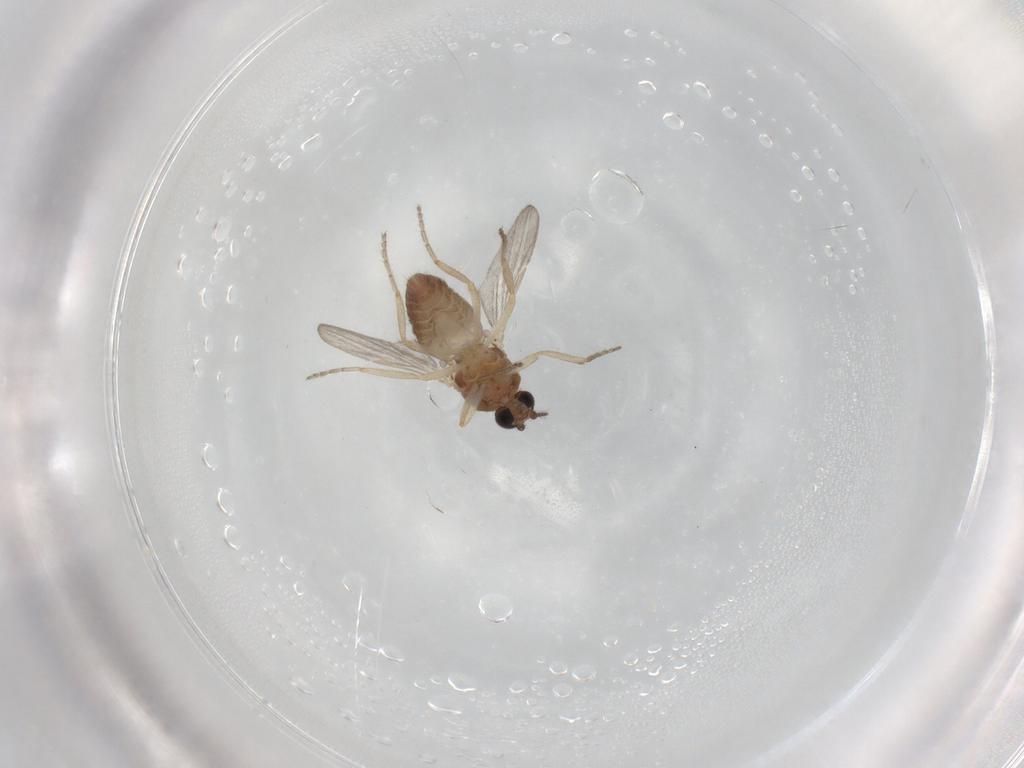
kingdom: Animalia
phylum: Arthropoda
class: Insecta
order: Diptera
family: Ceratopogonidae
